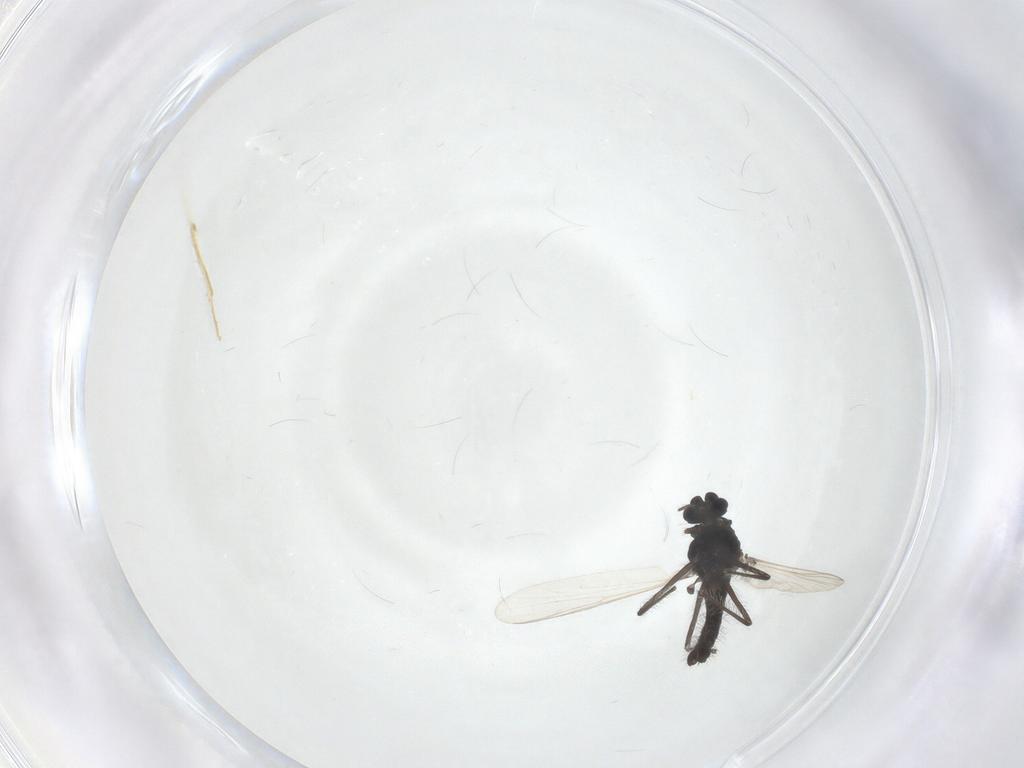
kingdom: Animalia
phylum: Arthropoda
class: Insecta
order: Diptera
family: Chironomidae
